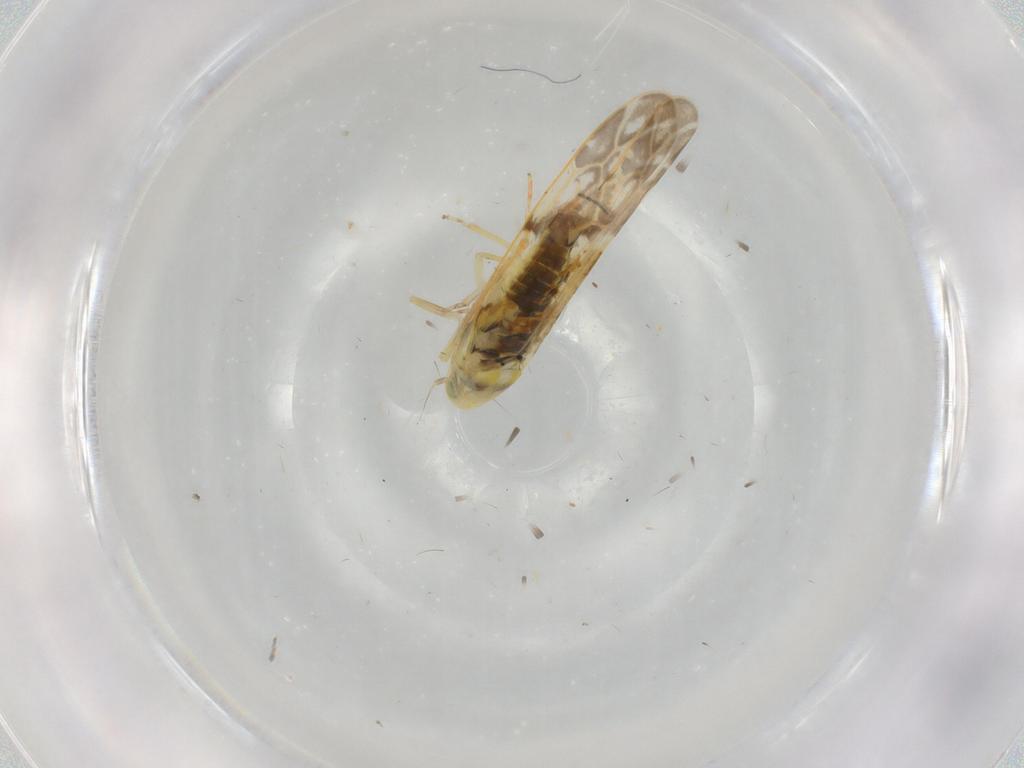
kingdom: Animalia
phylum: Arthropoda
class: Insecta
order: Hemiptera
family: Cicadellidae
